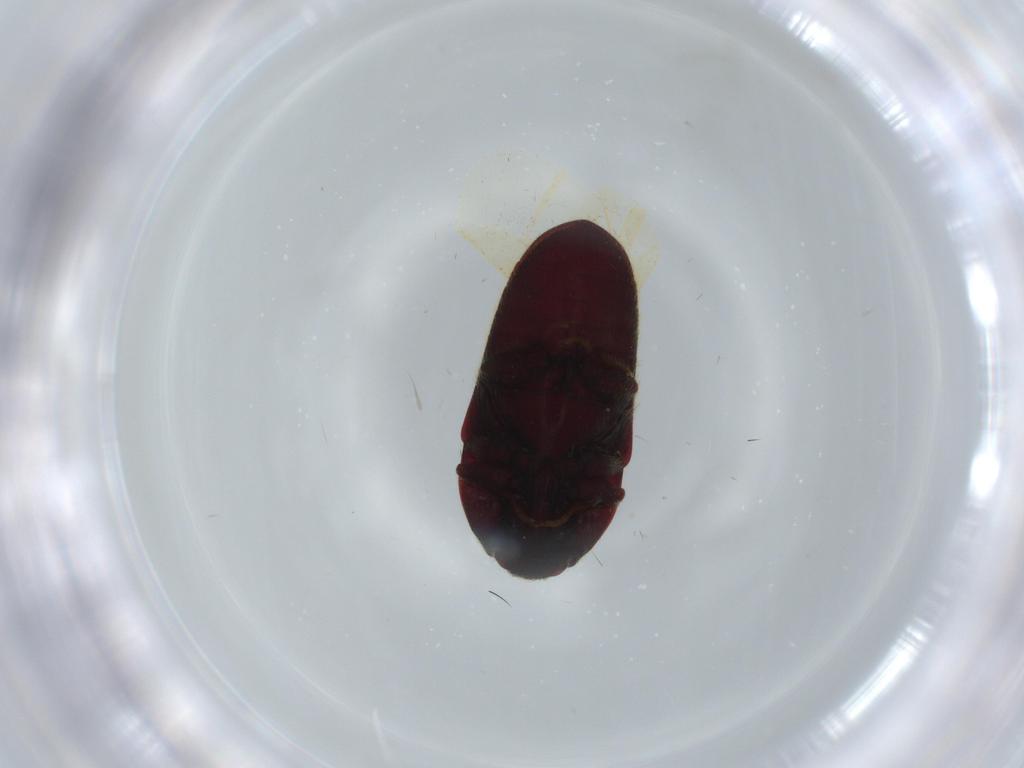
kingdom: Animalia
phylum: Arthropoda
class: Insecta
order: Coleoptera
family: Throscidae
